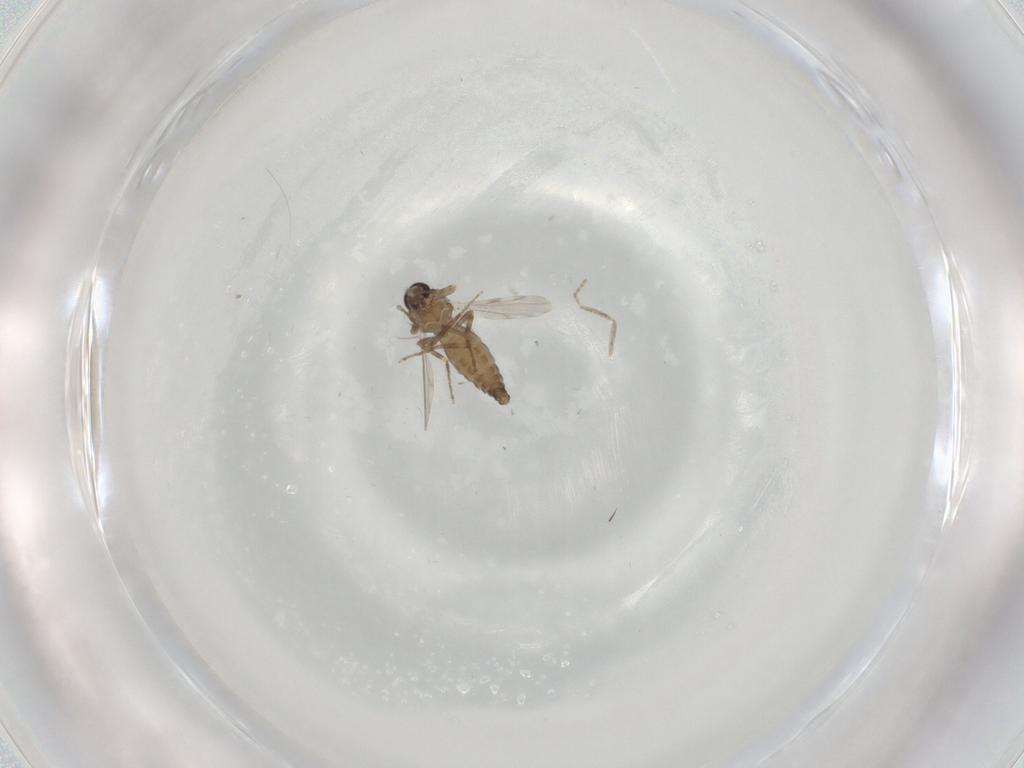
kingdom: Animalia
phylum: Arthropoda
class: Insecta
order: Diptera
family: Ceratopogonidae
